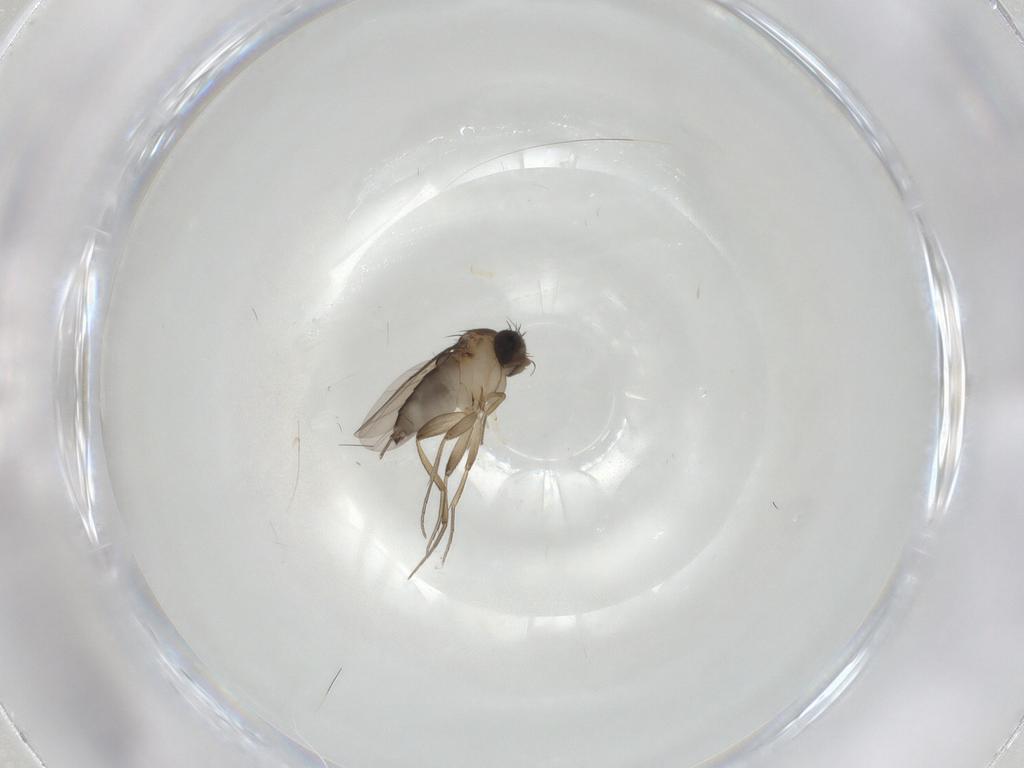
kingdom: Animalia
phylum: Arthropoda
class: Insecta
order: Diptera
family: Phoridae
